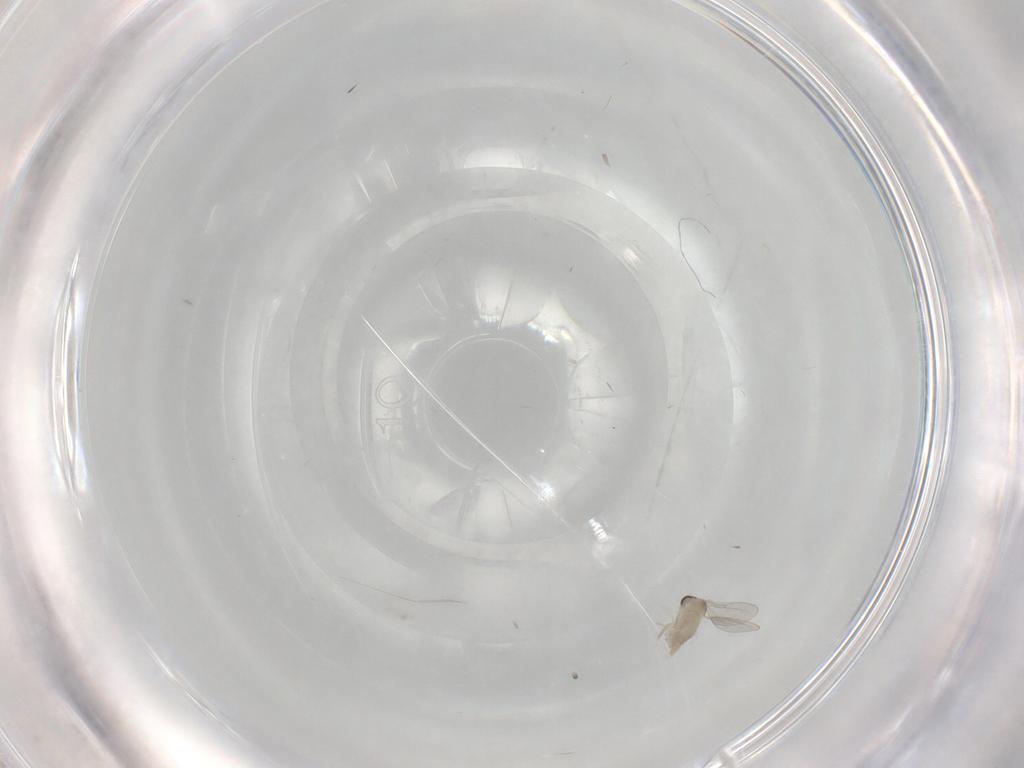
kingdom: Animalia
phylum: Arthropoda
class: Insecta
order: Diptera
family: Cecidomyiidae
